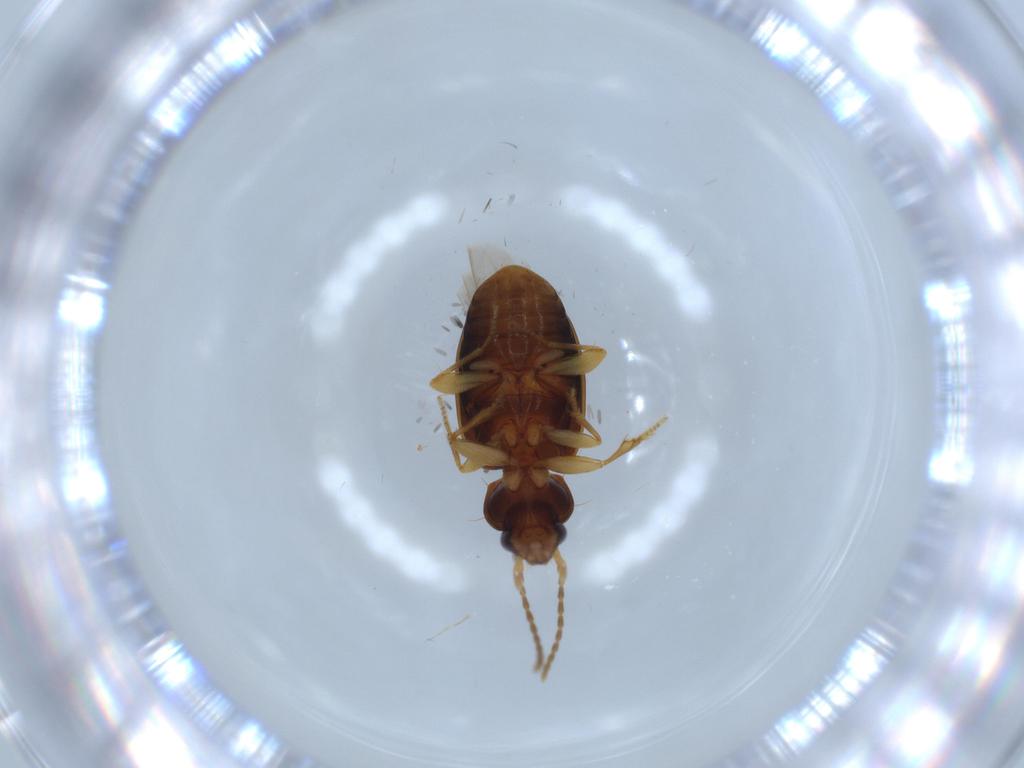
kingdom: Animalia
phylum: Arthropoda
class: Insecta
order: Coleoptera
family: Carabidae
